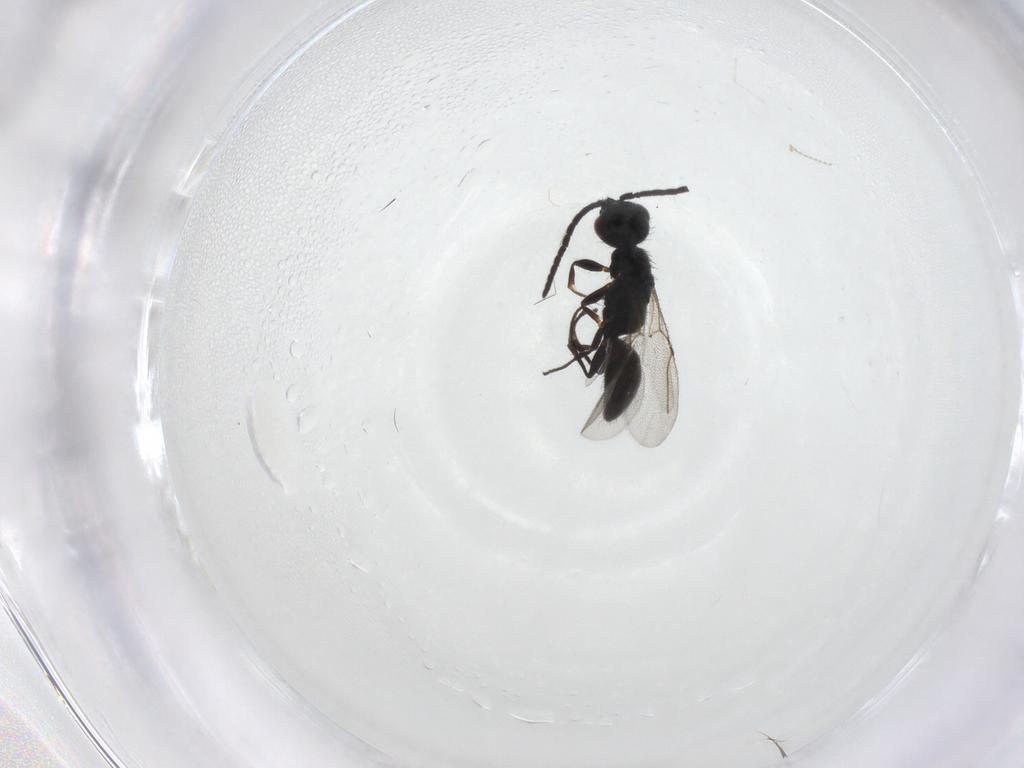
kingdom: Animalia
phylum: Arthropoda
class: Insecta
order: Hymenoptera
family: Bethylidae
